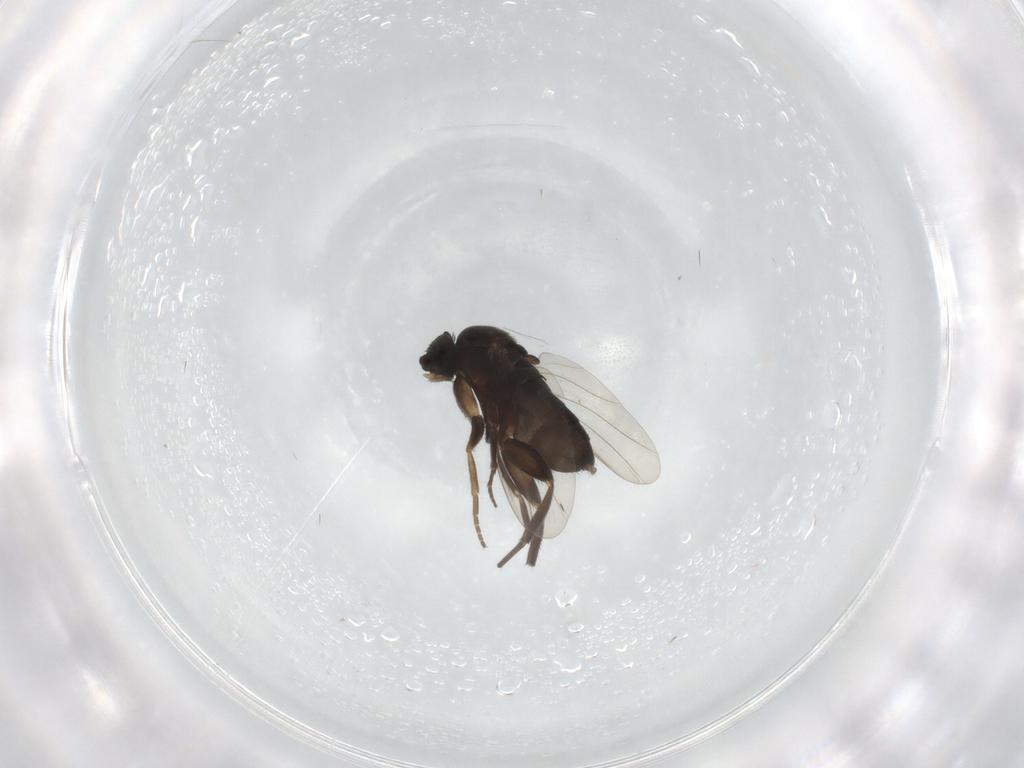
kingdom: Animalia
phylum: Arthropoda
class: Insecta
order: Diptera
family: Phoridae
